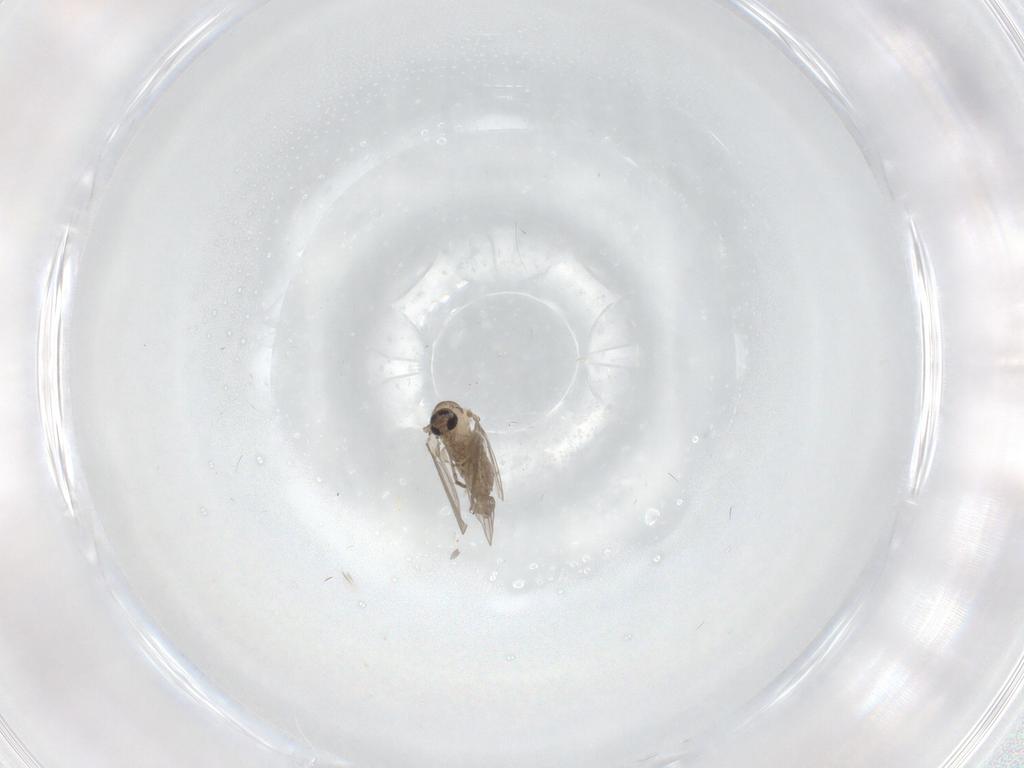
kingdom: Animalia
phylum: Arthropoda
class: Insecta
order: Diptera
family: Psychodidae
